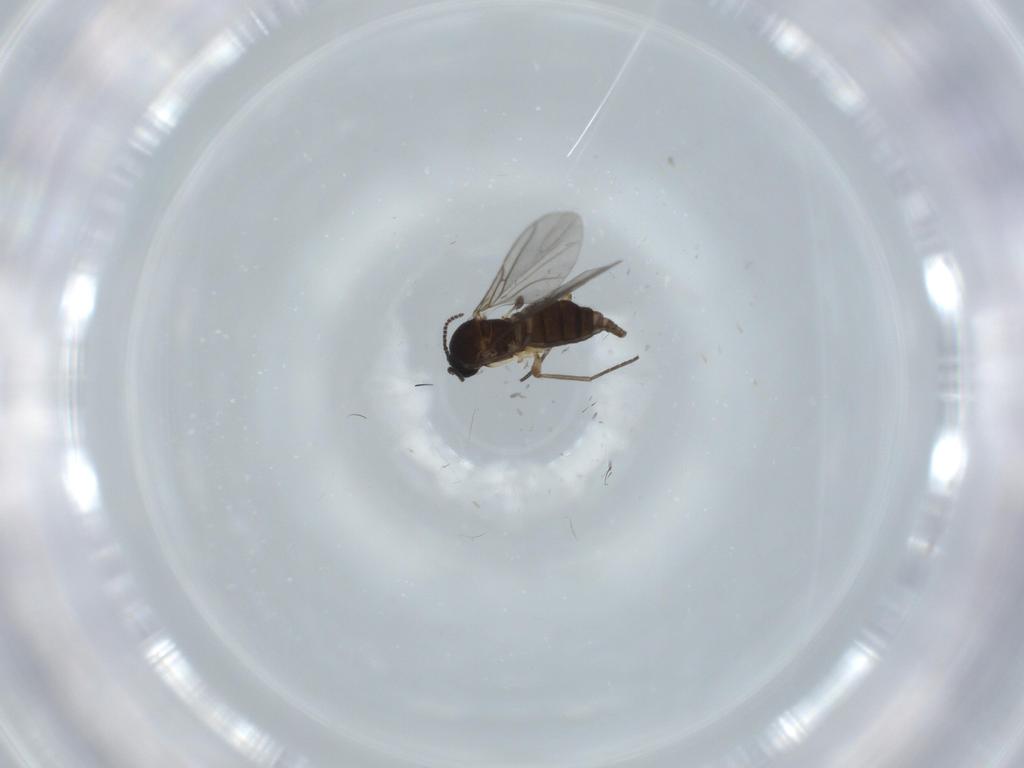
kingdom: Animalia
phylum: Arthropoda
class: Insecta
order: Diptera
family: Sciaridae
